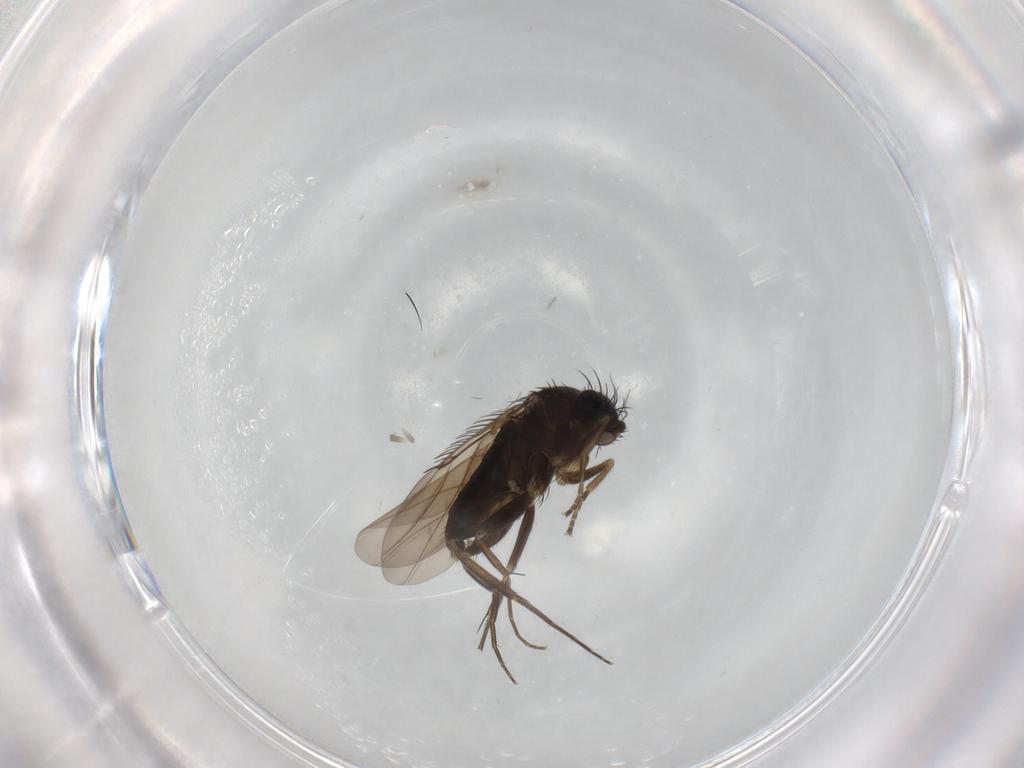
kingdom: Animalia
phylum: Arthropoda
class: Insecta
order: Diptera
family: Phoridae
